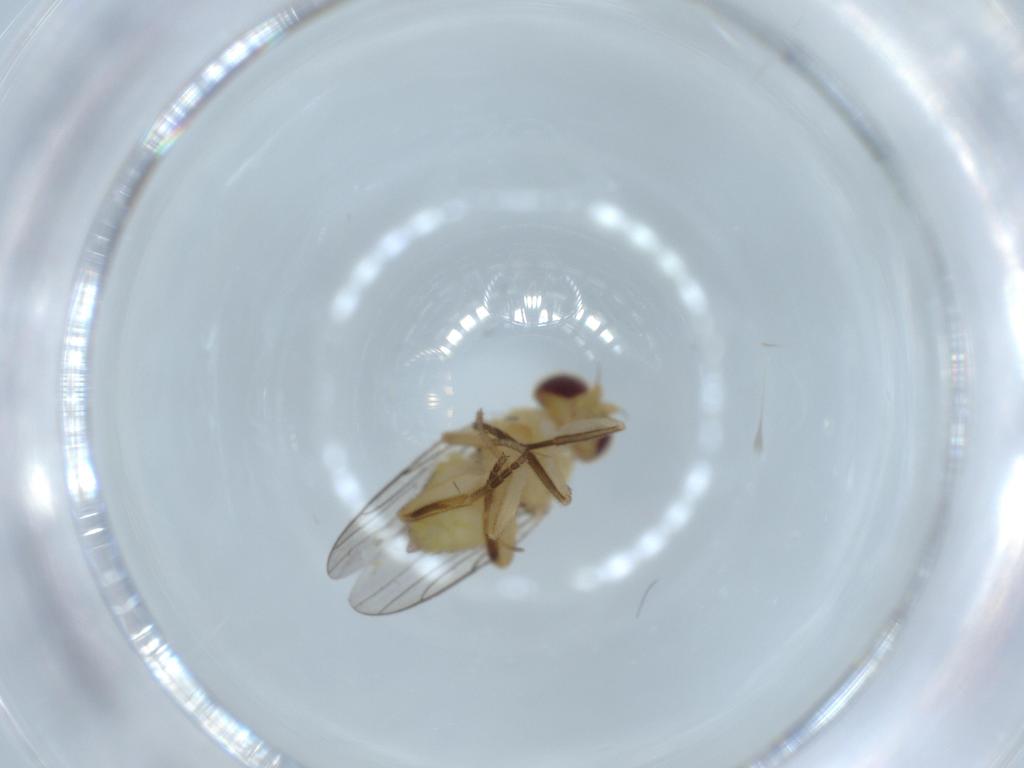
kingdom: Animalia
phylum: Arthropoda
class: Insecta
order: Diptera
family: Chloropidae
